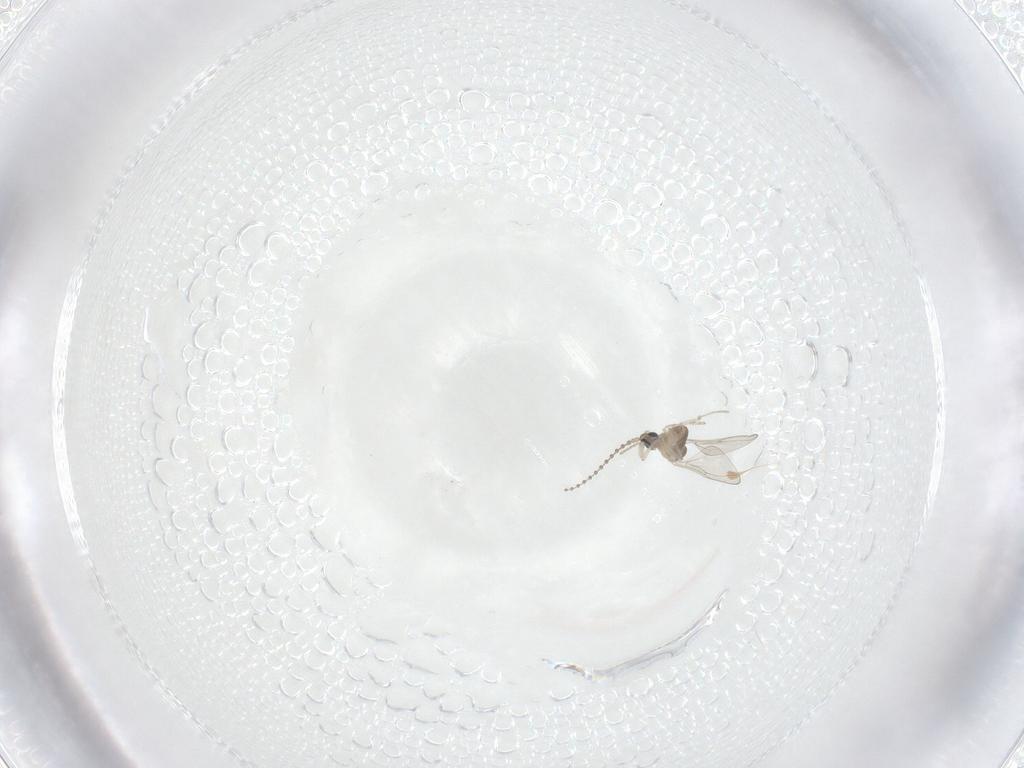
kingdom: Animalia
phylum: Arthropoda
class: Insecta
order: Diptera
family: Cecidomyiidae
